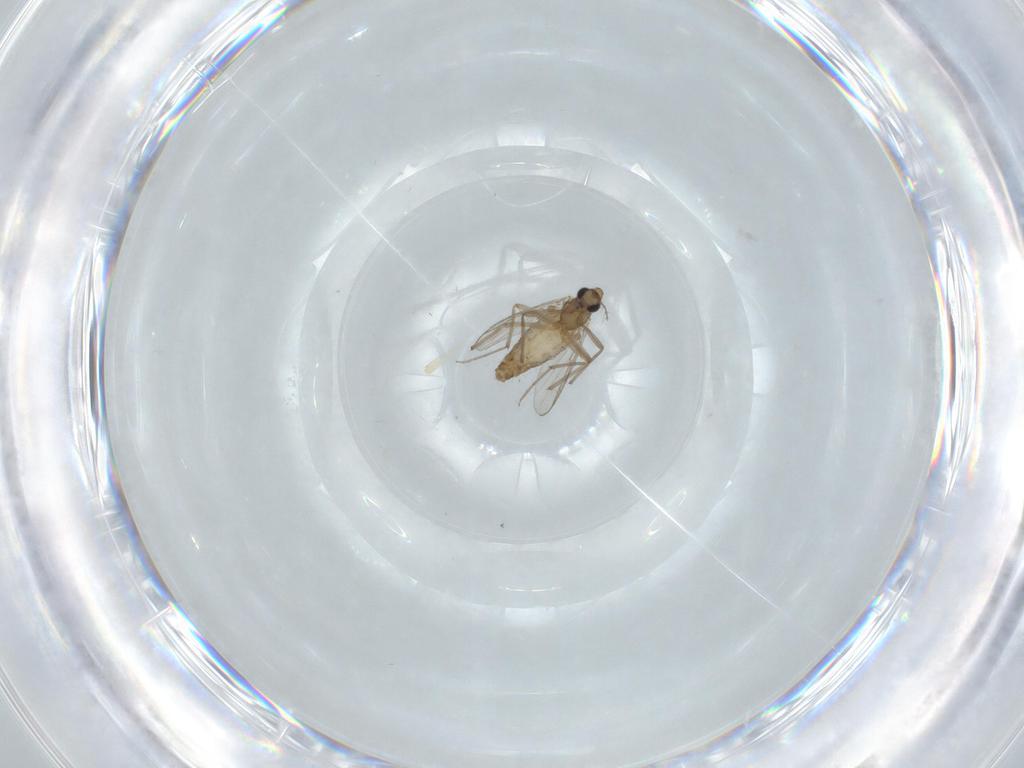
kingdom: Animalia
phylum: Arthropoda
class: Insecta
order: Diptera
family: Chironomidae
